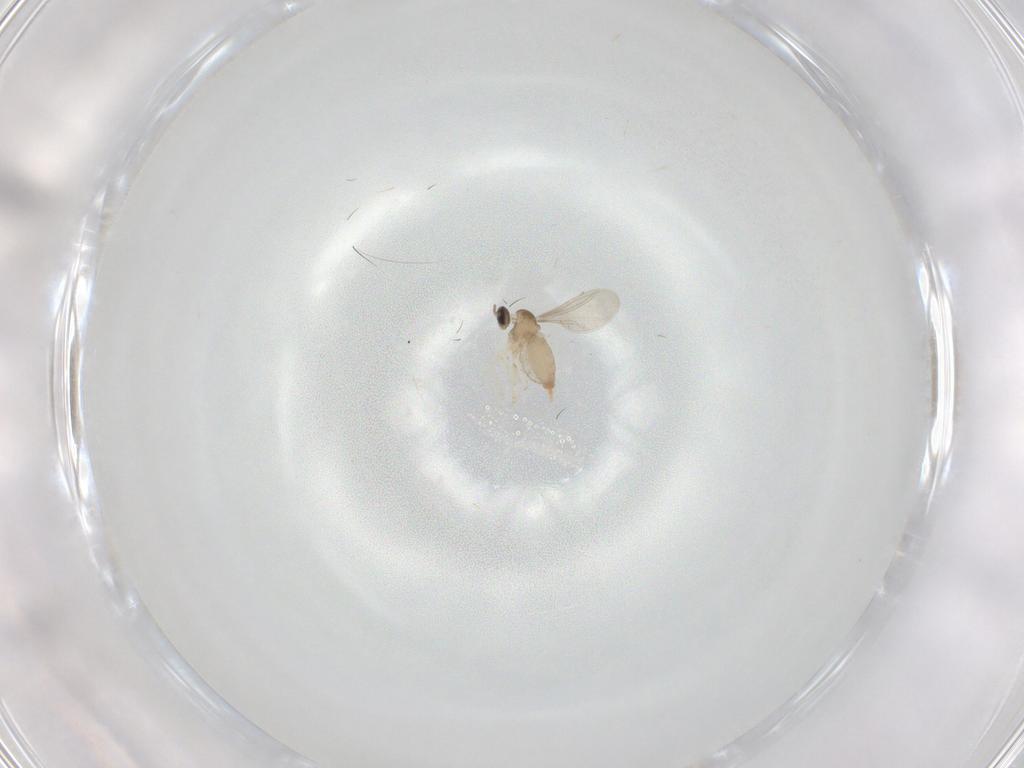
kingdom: Animalia
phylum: Arthropoda
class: Insecta
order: Diptera
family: Cecidomyiidae
